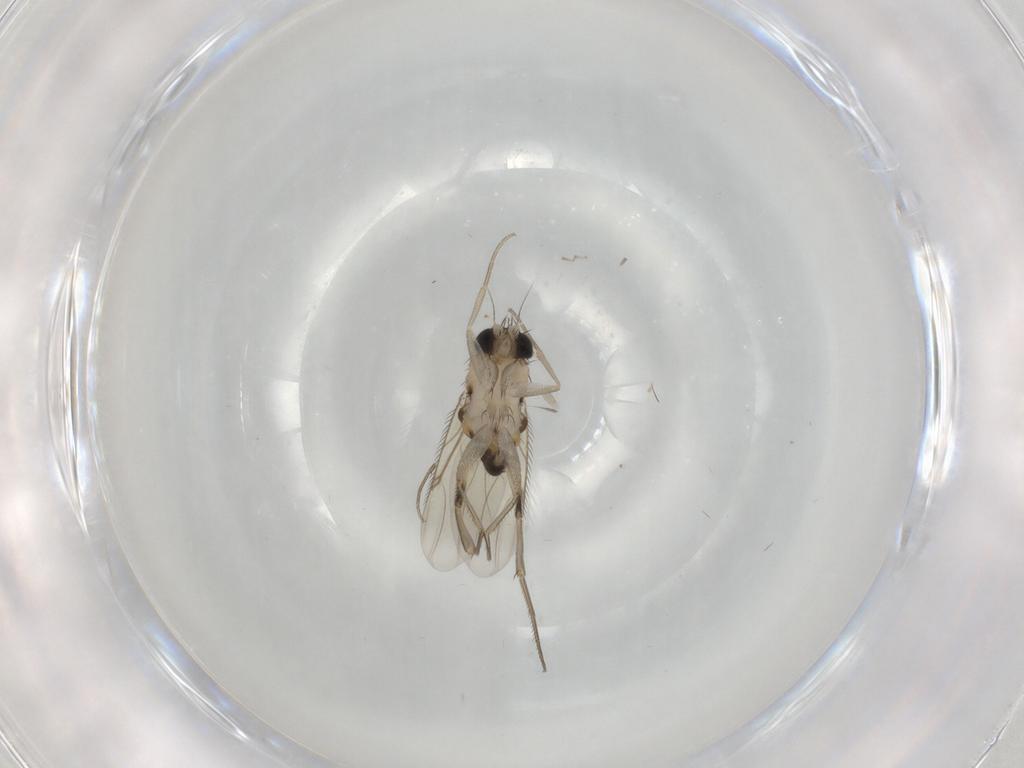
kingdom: Animalia
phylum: Arthropoda
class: Insecta
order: Diptera
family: Phoridae
